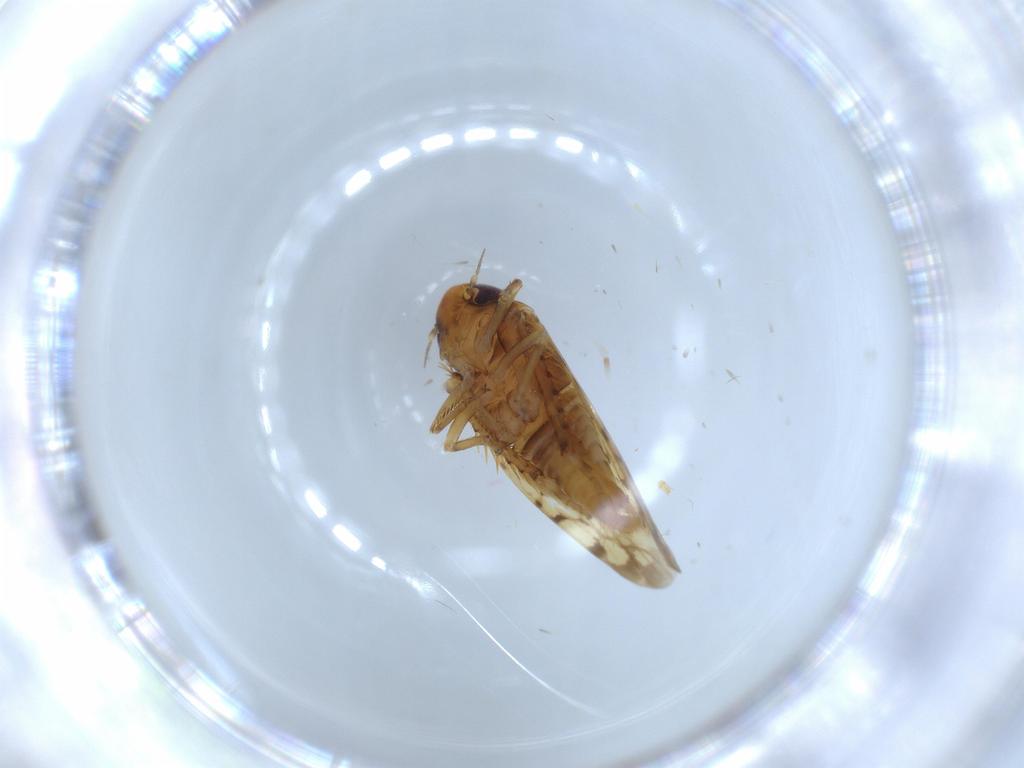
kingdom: Animalia
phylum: Arthropoda
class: Insecta
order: Hemiptera
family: Cicadellidae
